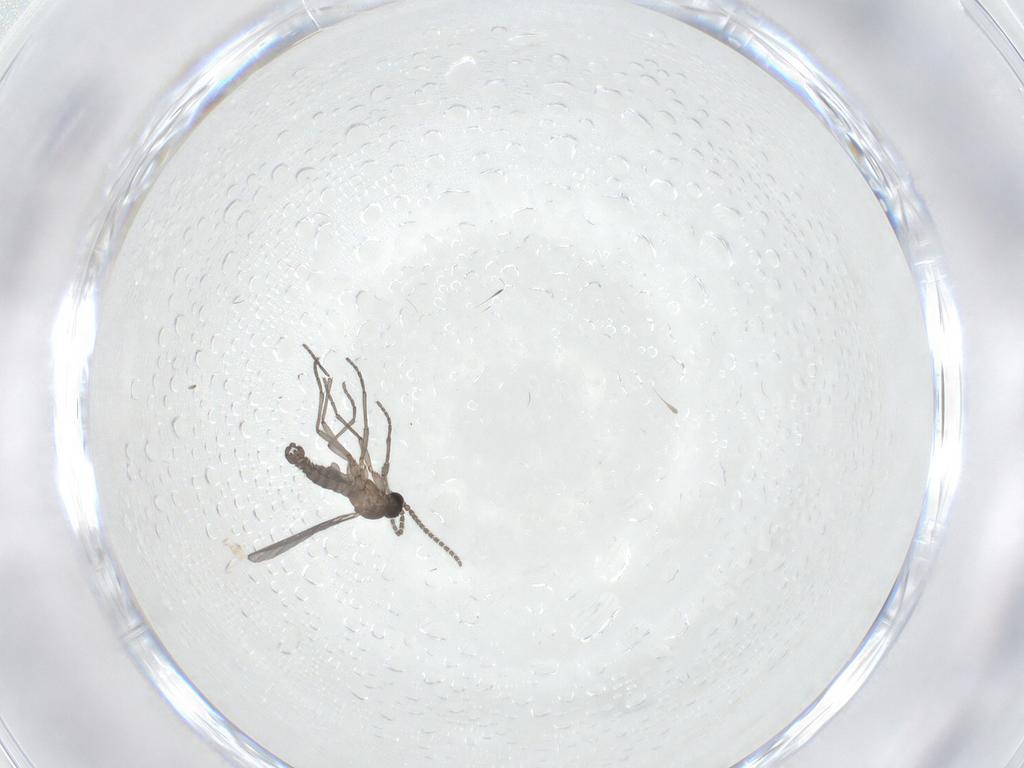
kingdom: Animalia
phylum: Arthropoda
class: Insecta
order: Diptera
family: Sciaridae
